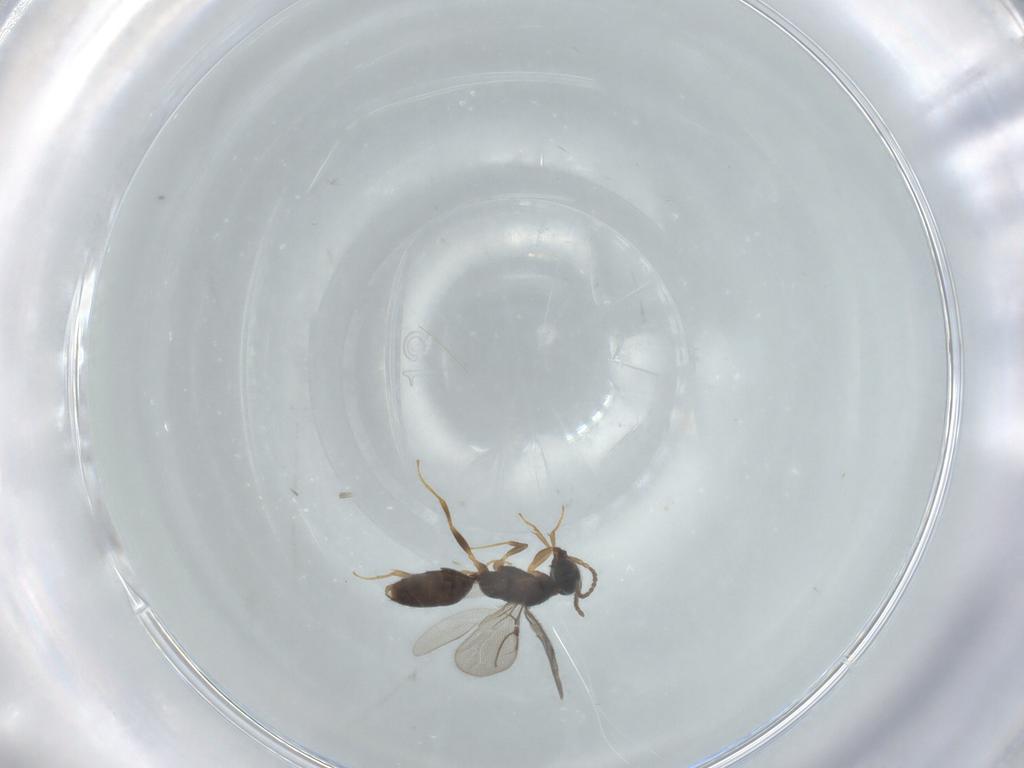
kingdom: Animalia
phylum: Arthropoda
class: Insecta
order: Hymenoptera
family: Bethylidae
